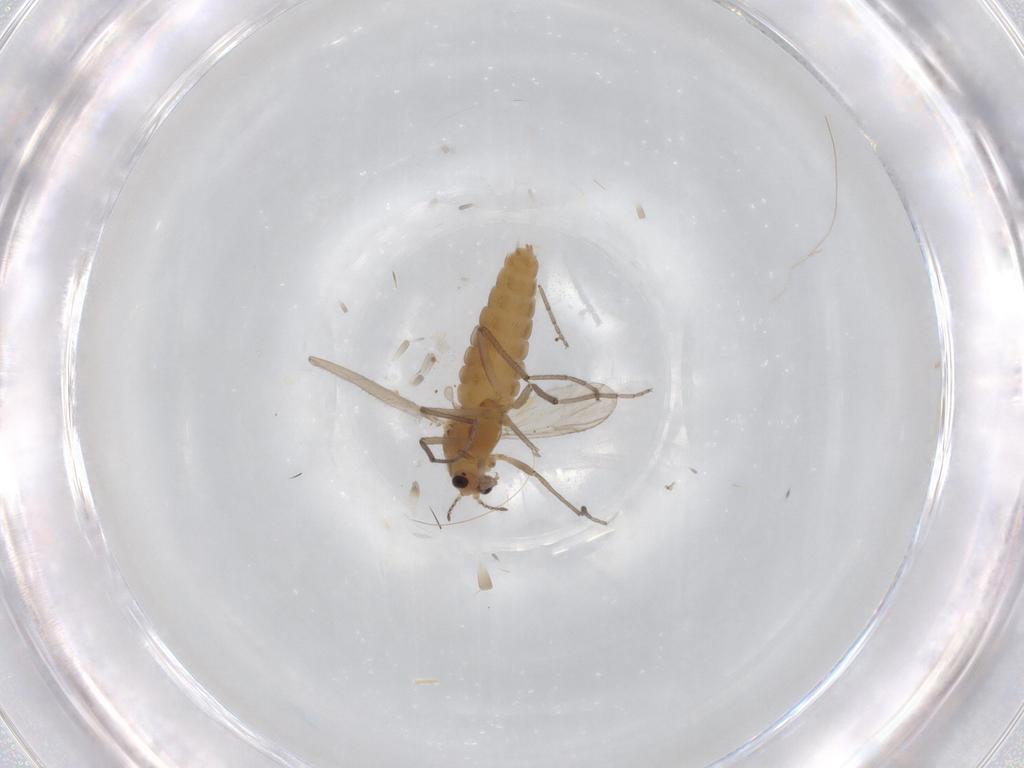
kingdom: Animalia
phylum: Arthropoda
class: Insecta
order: Diptera
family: Chironomidae
